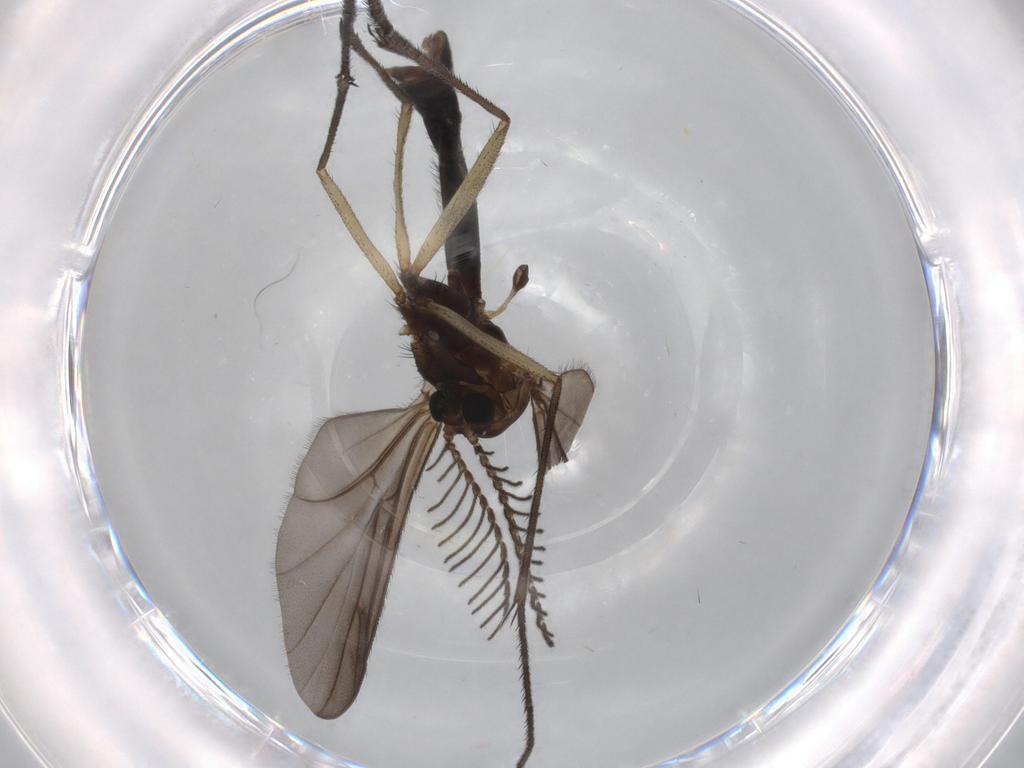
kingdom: Animalia
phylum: Arthropoda
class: Insecta
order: Diptera
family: Ditomyiidae
